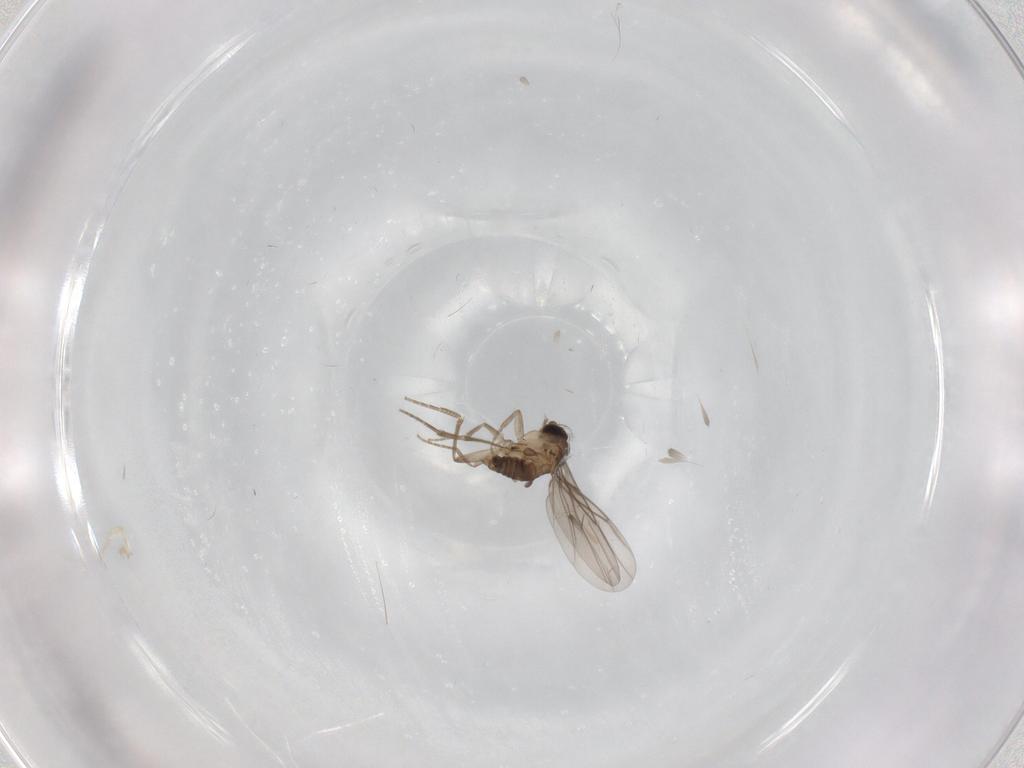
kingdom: Animalia
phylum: Arthropoda
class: Insecta
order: Diptera
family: Phoridae
